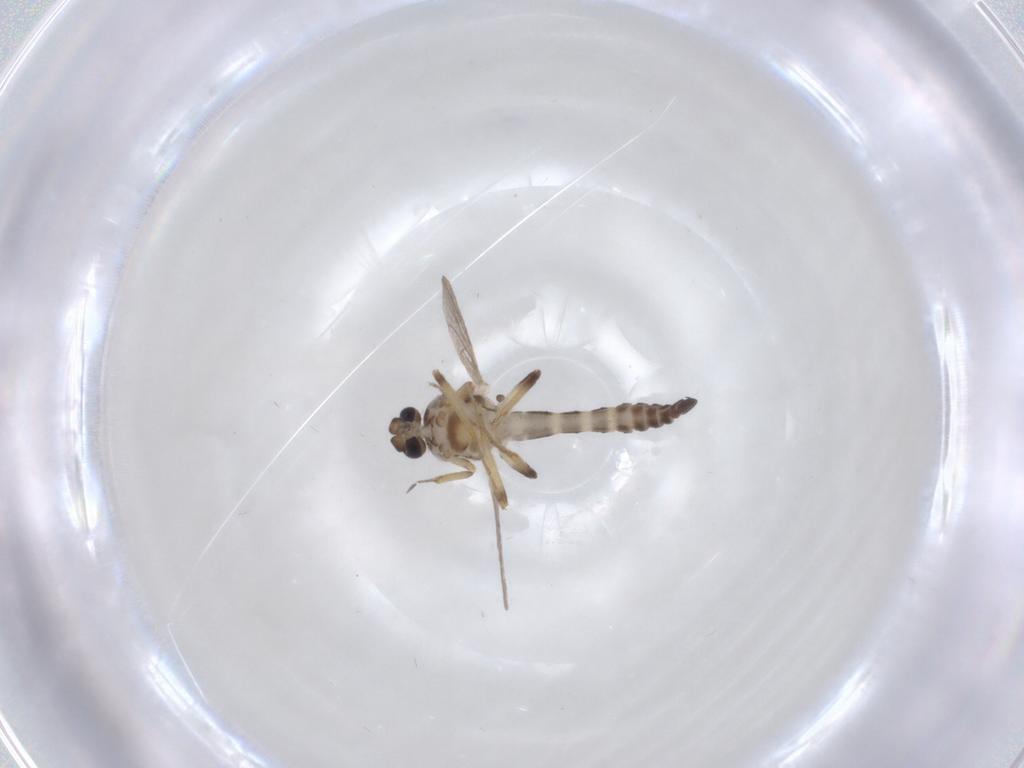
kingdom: Animalia
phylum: Arthropoda
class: Insecta
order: Diptera
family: Ceratopogonidae
